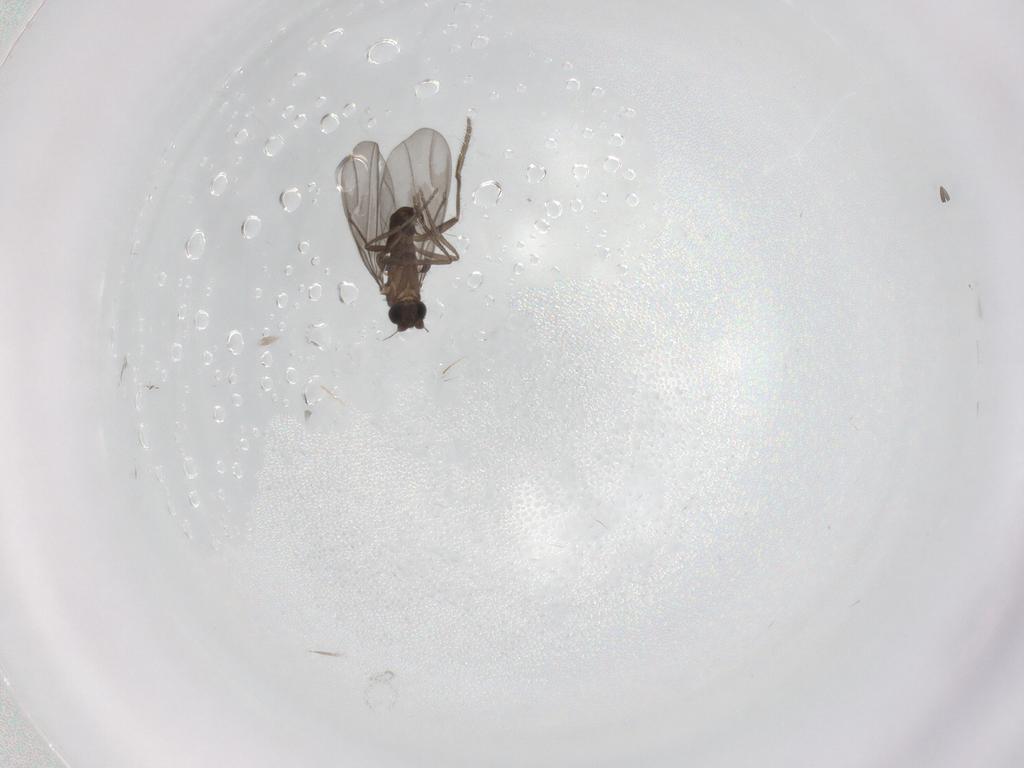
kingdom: Animalia
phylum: Arthropoda
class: Insecta
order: Diptera
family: Phoridae
